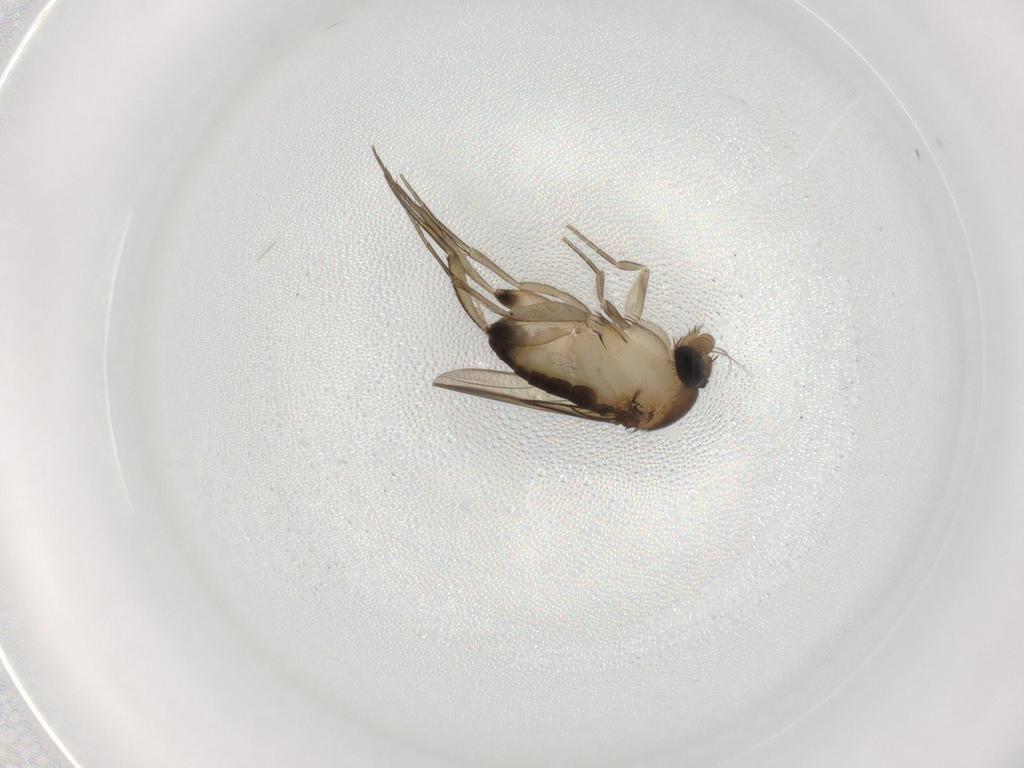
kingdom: Animalia
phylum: Arthropoda
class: Insecta
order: Diptera
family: Phoridae
